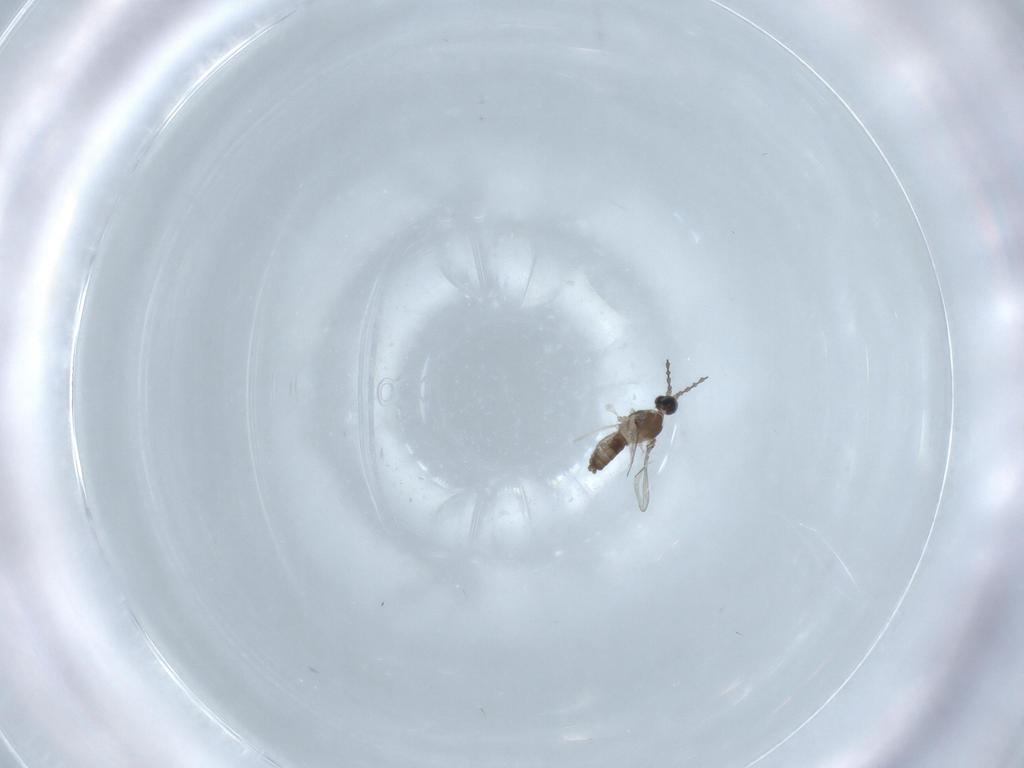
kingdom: Animalia
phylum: Arthropoda
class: Insecta
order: Diptera
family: Cecidomyiidae
